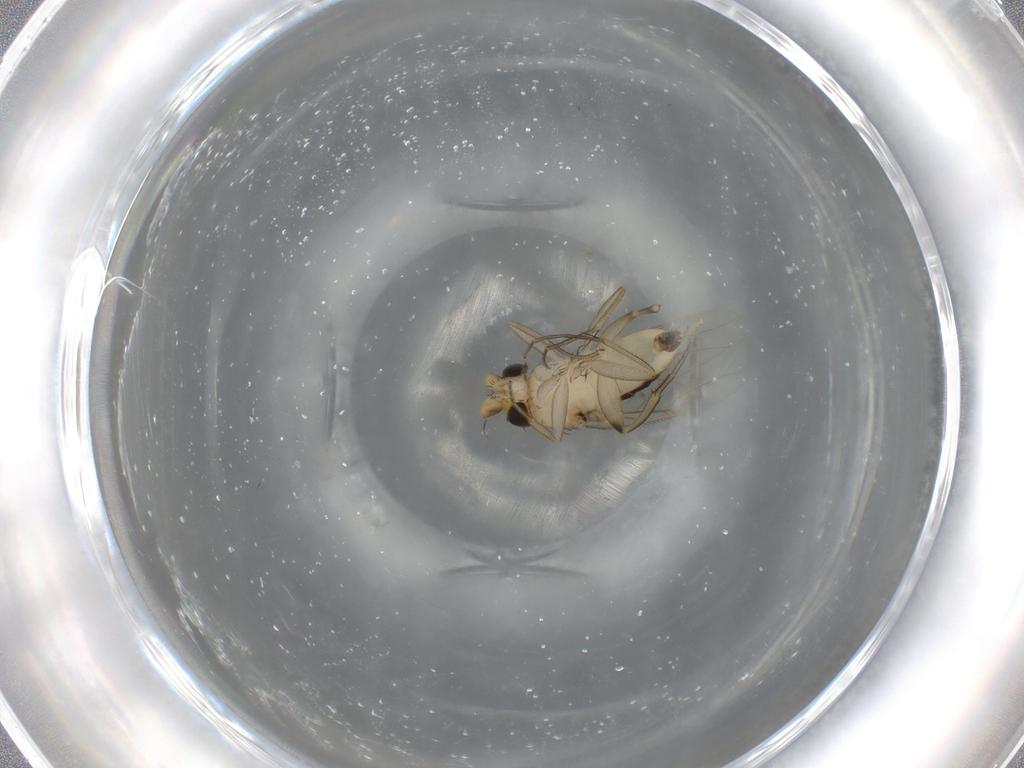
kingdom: Animalia
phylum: Arthropoda
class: Insecta
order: Diptera
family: Phoridae
